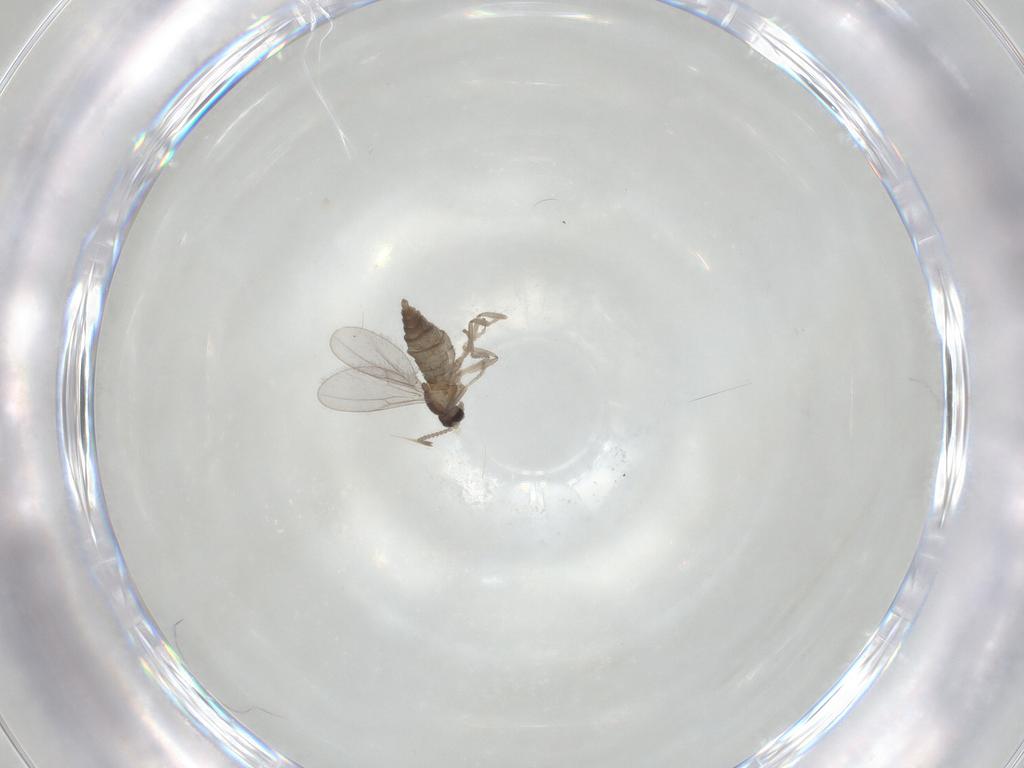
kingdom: Animalia
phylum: Arthropoda
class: Insecta
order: Diptera
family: Cecidomyiidae
